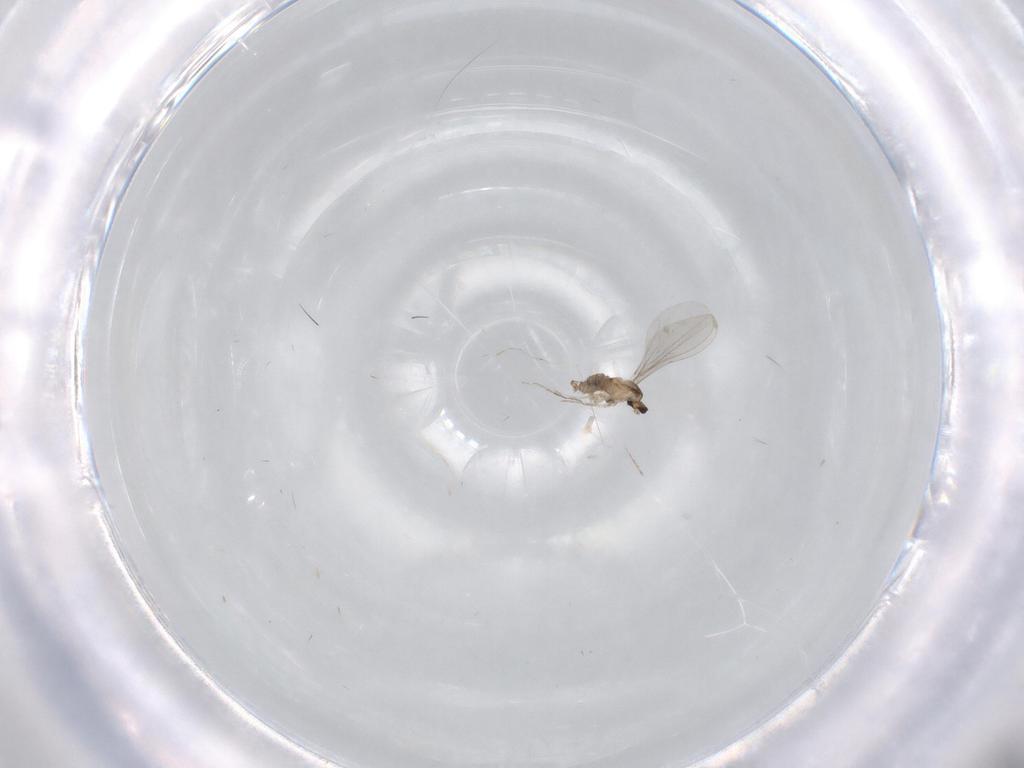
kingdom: Animalia
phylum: Arthropoda
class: Insecta
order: Diptera
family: Cecidomyiidae
